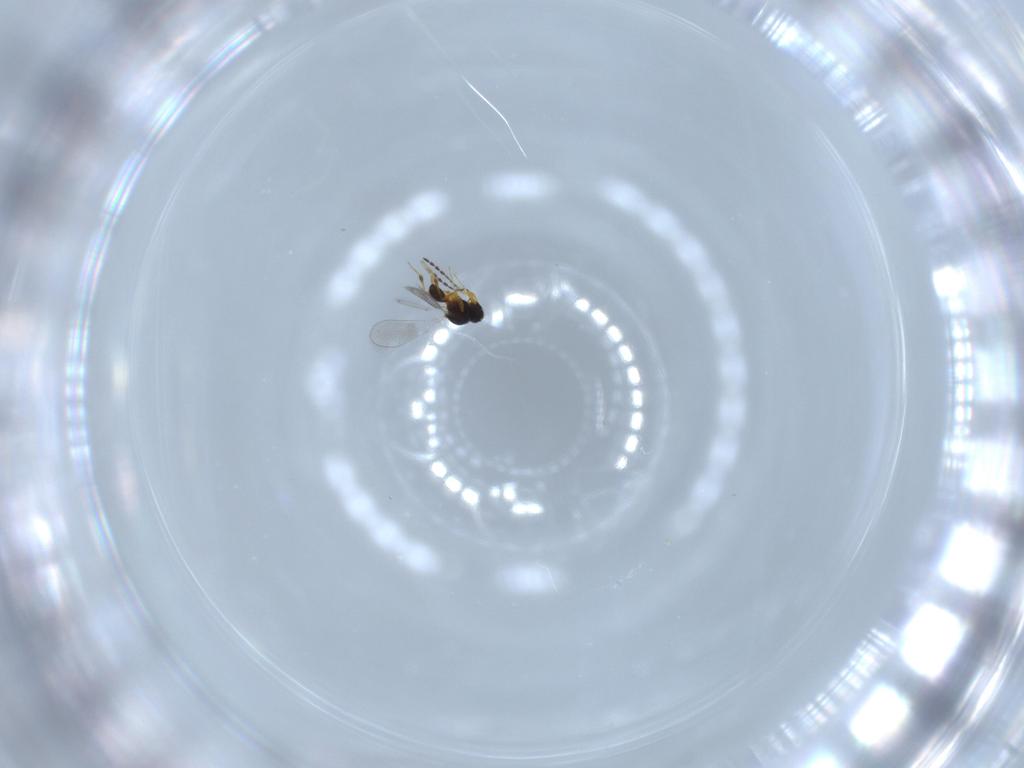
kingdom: Animalia
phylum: Arthropoda
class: Insecta
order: Hymenoptera
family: Platygastridae
